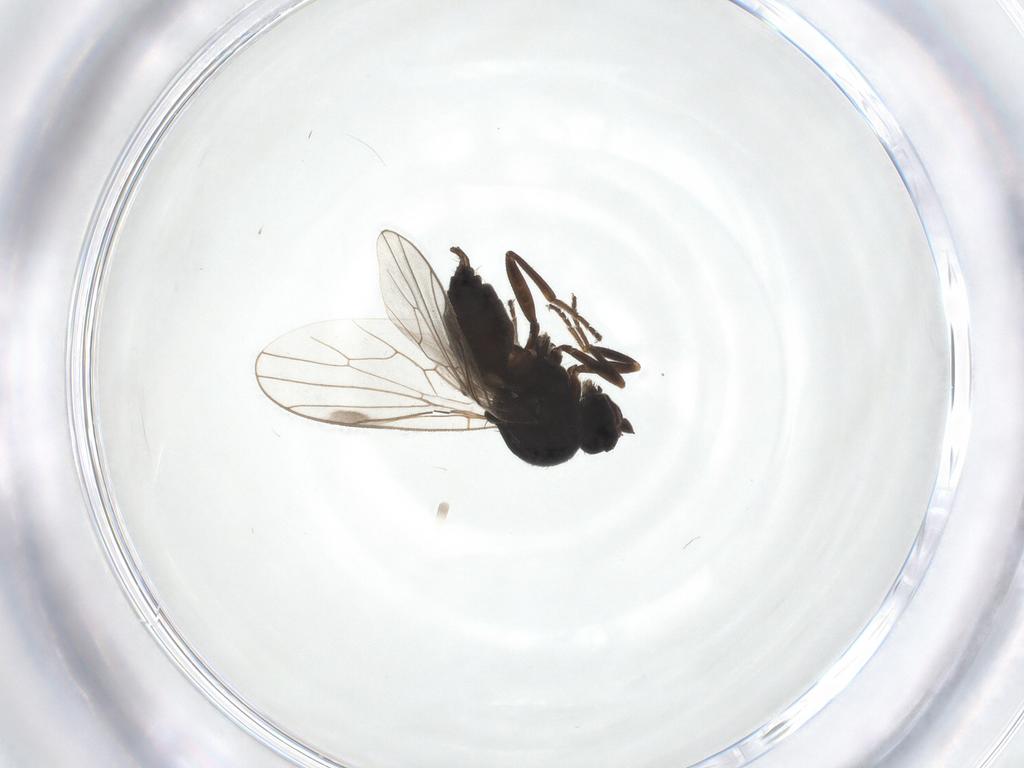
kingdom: Animalia
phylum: Arthropoda
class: Insecta
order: Diptera
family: Hybotidae
